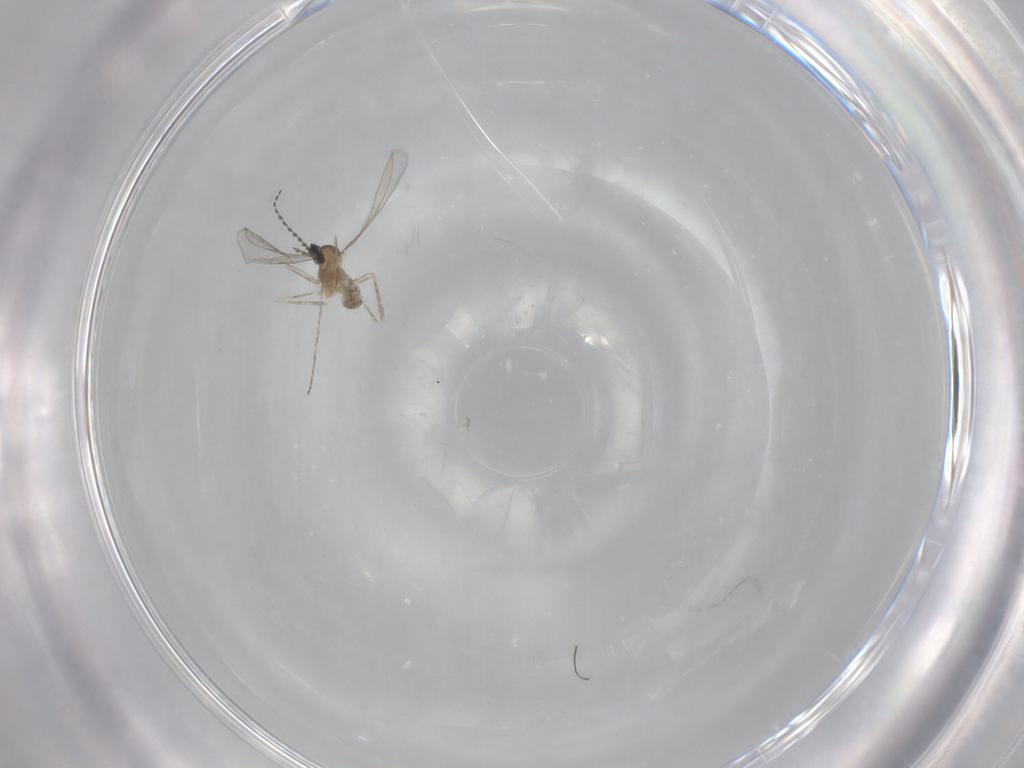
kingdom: Animalia
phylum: Arthropoda
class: Insecta
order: Diptera
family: Cecidomyiidae
